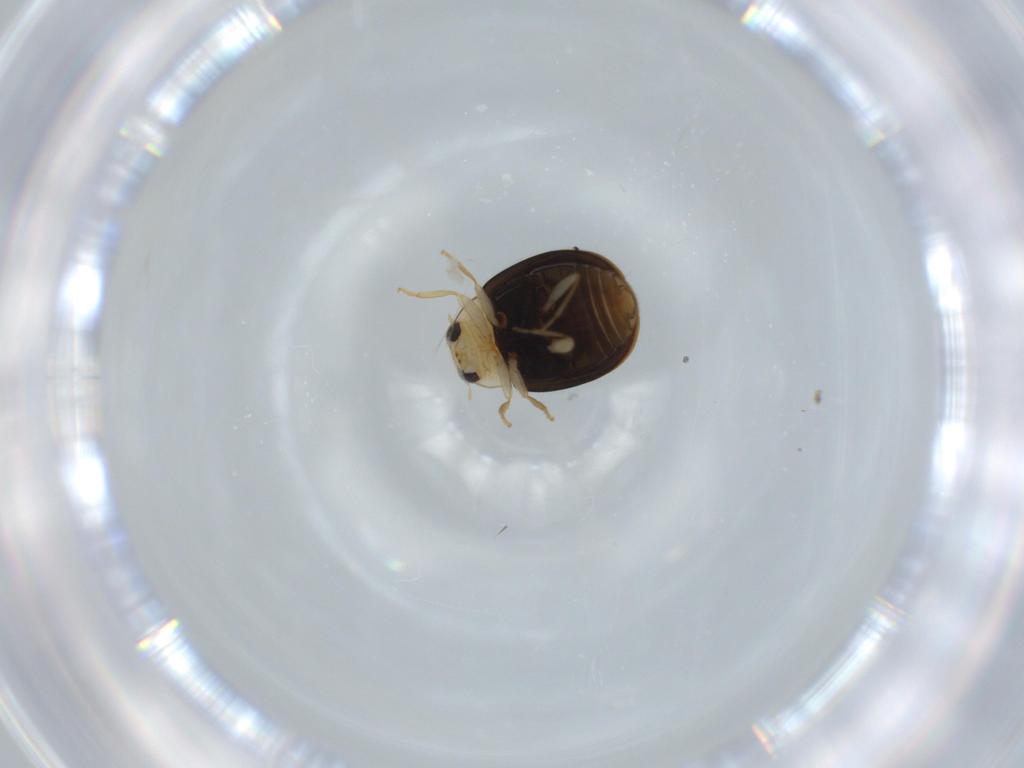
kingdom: Animalia
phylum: Arthropoda
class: Insecta
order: Coleoptera
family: Coccinellidae
